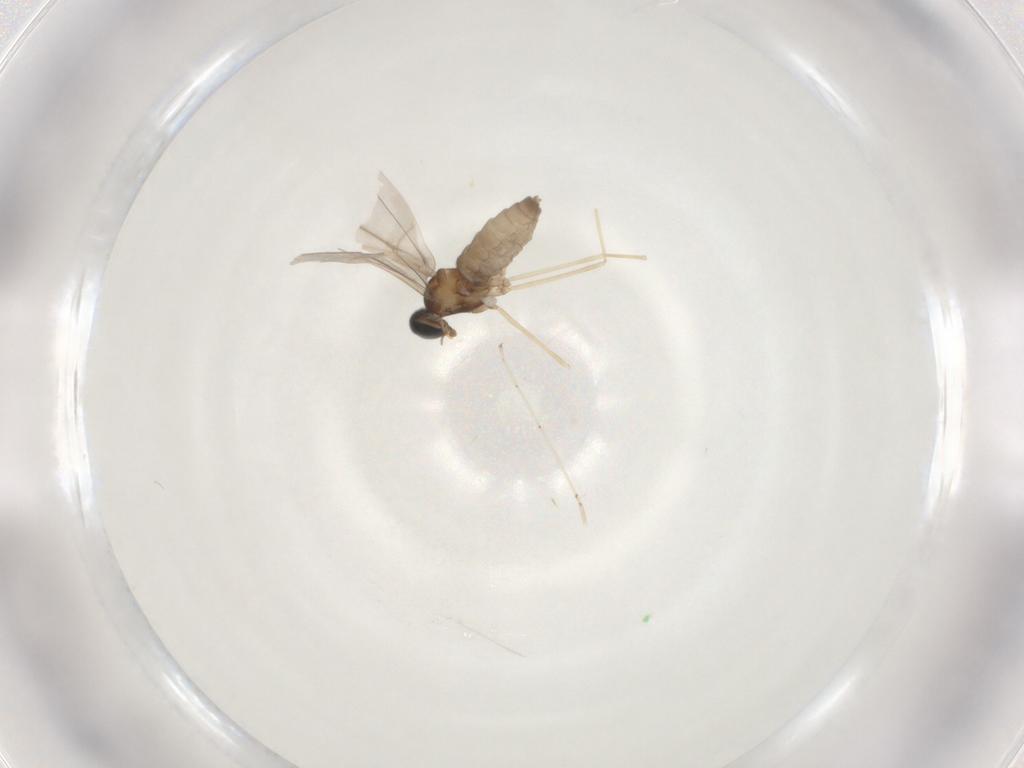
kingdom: Animalia
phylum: Arthropoda
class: Insecta
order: Diptera
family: Cecidomyiidae
